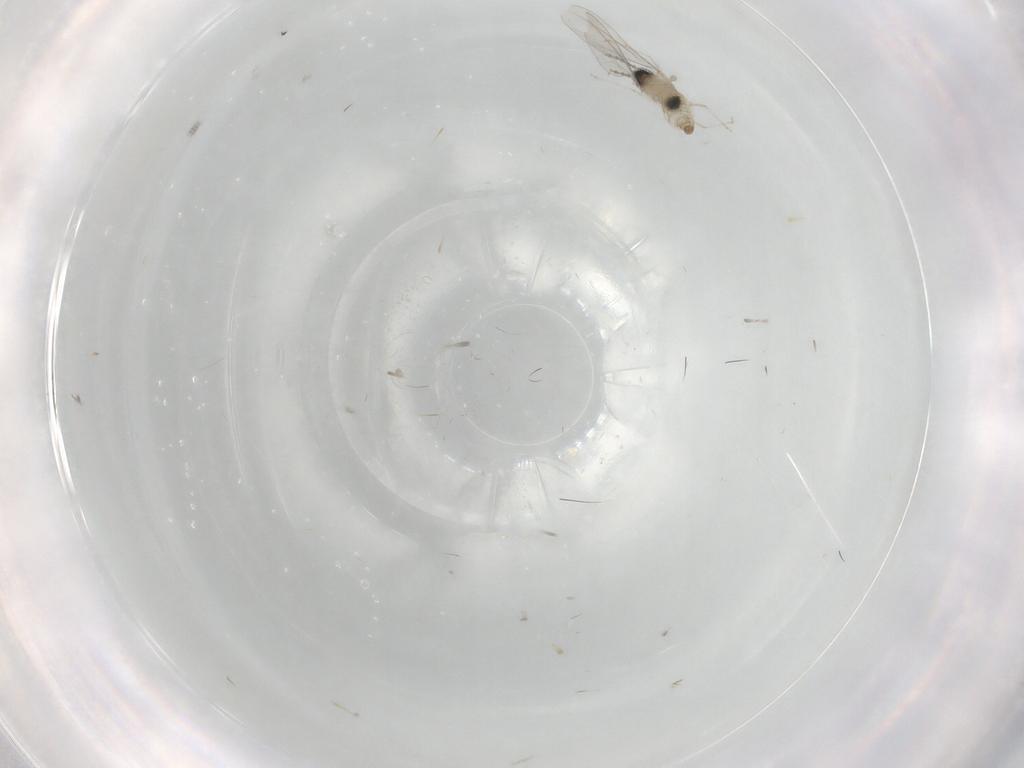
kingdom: Animalia
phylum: Arthropoda
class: Insecta
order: Diptera
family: Cecidomyiidae
